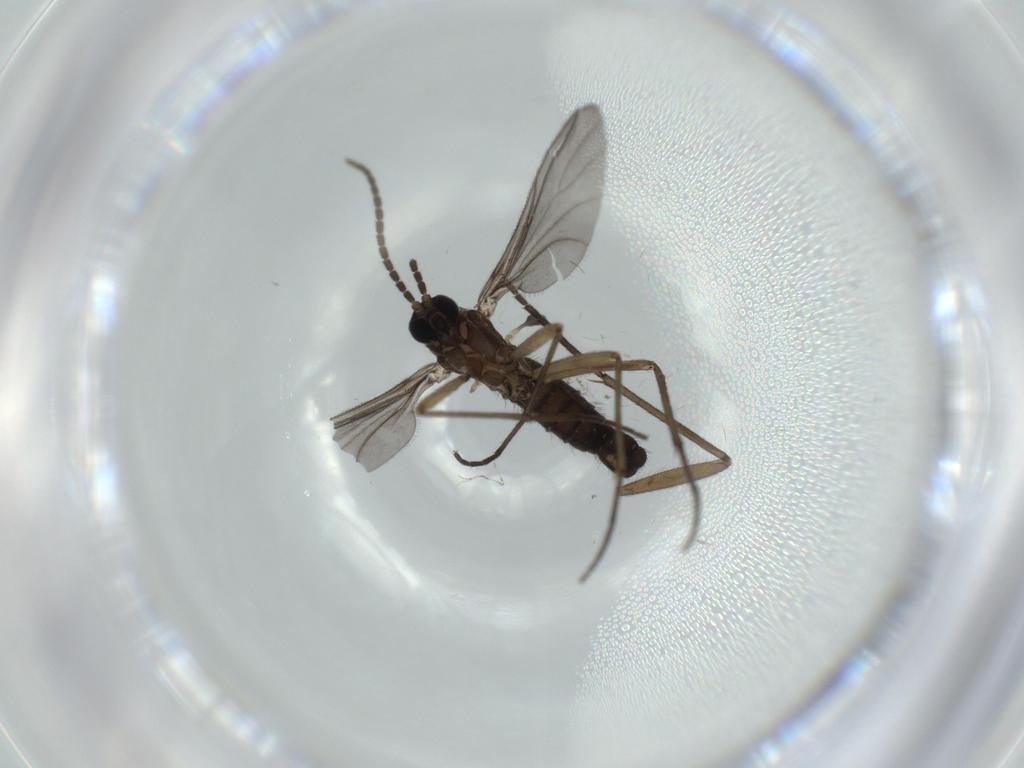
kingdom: Animalia
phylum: Arthropoda
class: Insecta
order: Diptera
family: Sciaridae
